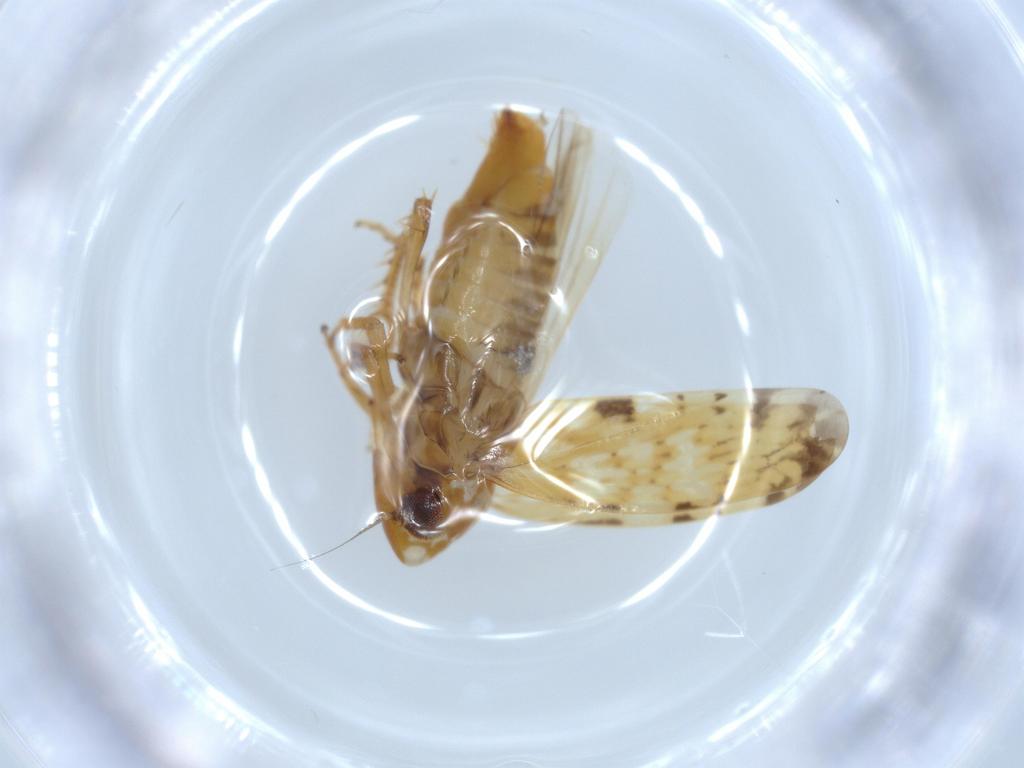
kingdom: Animalia
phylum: Arthropoda
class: Insecta
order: Hemiptera
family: Cicadellidae
